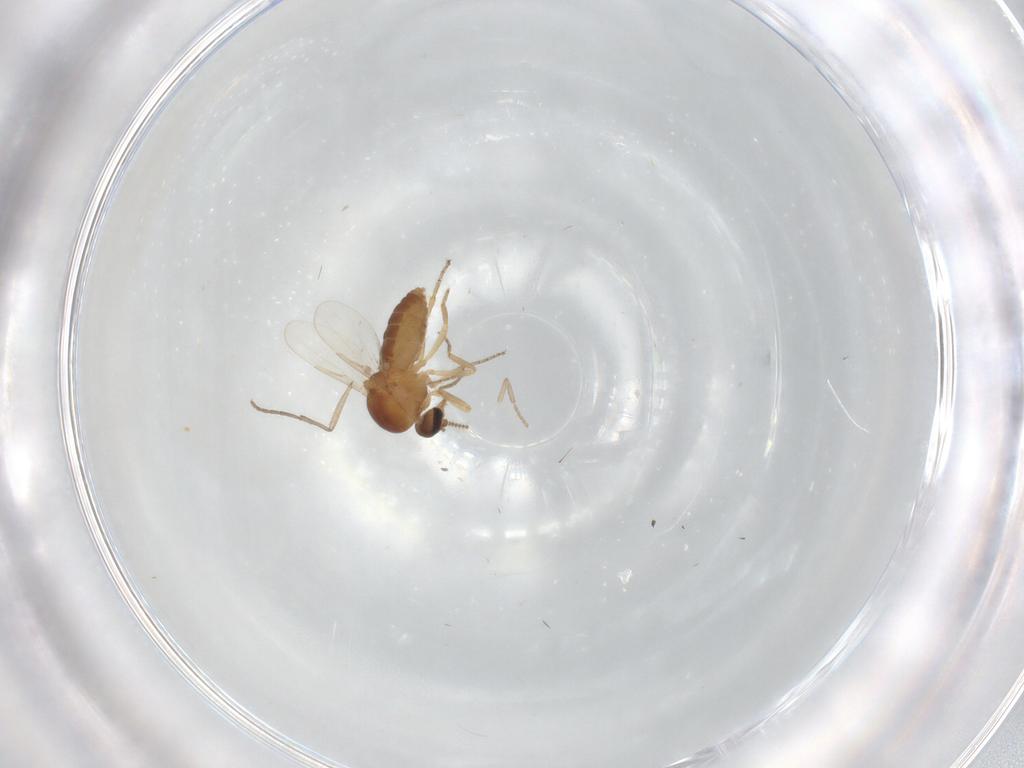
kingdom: Animalia
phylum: Arthropoda
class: Insecta
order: Diptera
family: Ceratopogonidae
